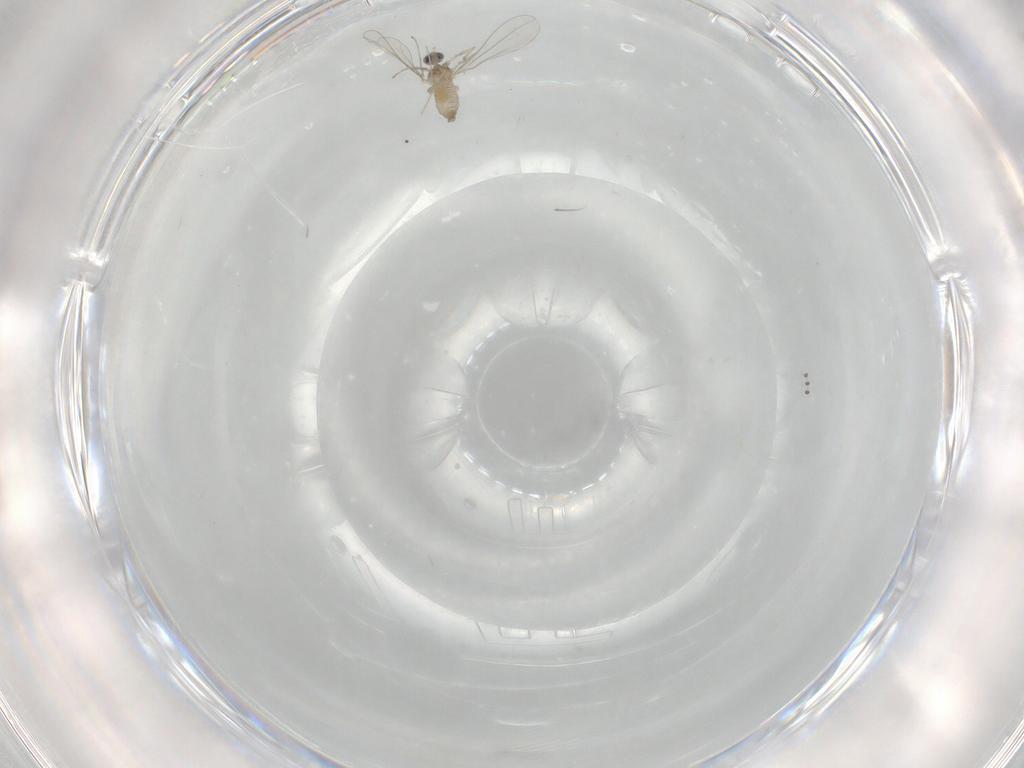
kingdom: Animalia
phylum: Arthropoda
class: Insecta
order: Diptera
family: Cecidomyiidae
